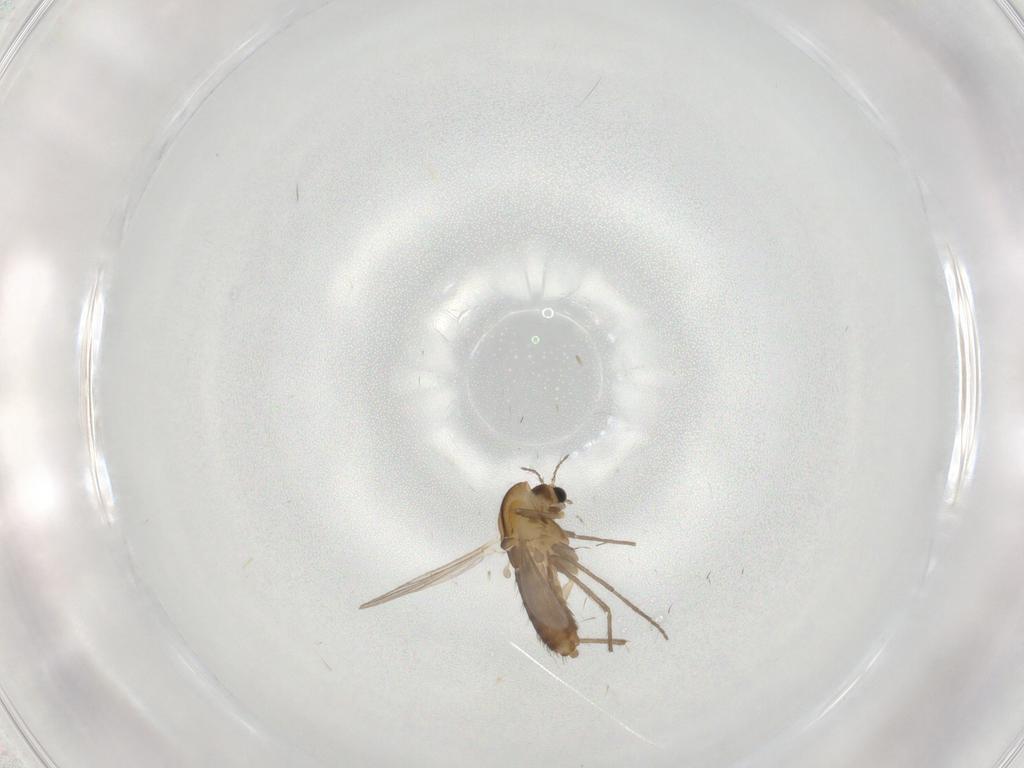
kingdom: Animalia
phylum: Arthropoda
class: Insecta
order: Diptera
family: Chironomidae
